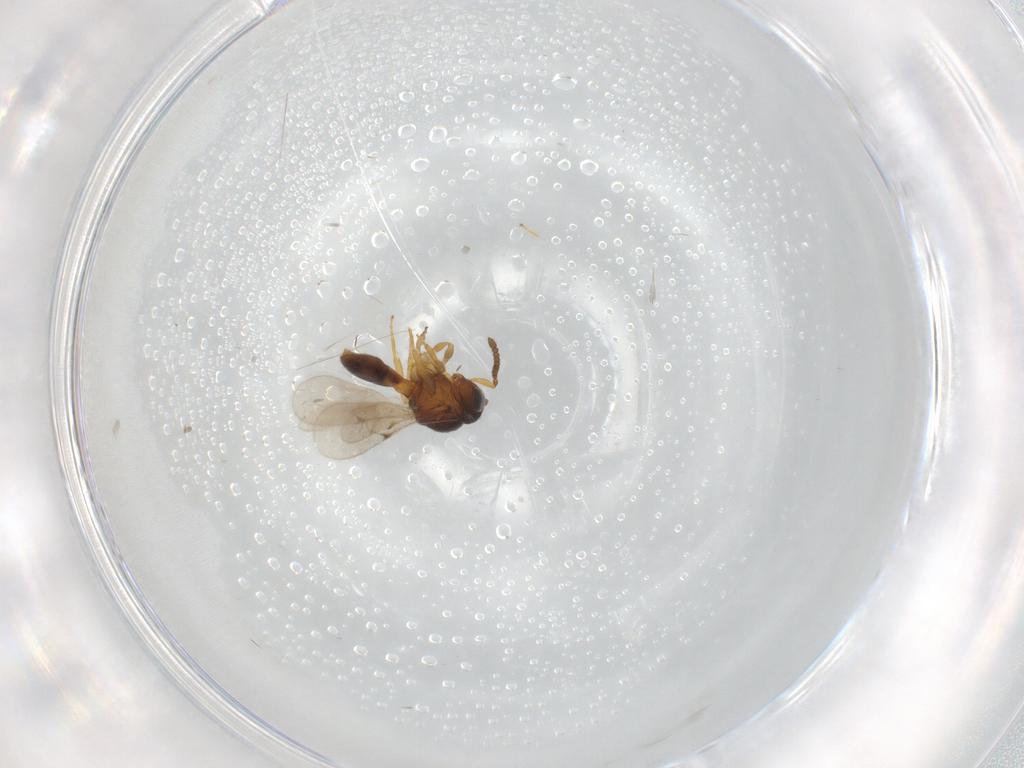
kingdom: Animalia
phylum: Arthropoda
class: Insecta
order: Hymenoptera
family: Scelionidae
